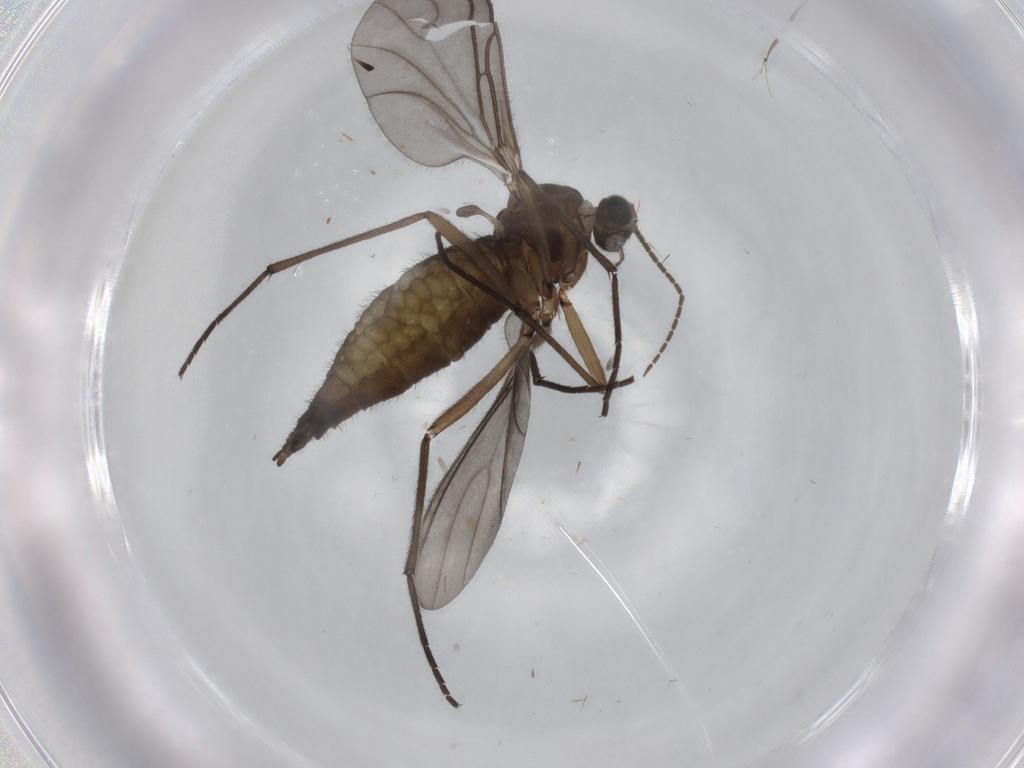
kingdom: Animalia
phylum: Arthropoda
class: Insecta
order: Diptera
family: Sciaridae
